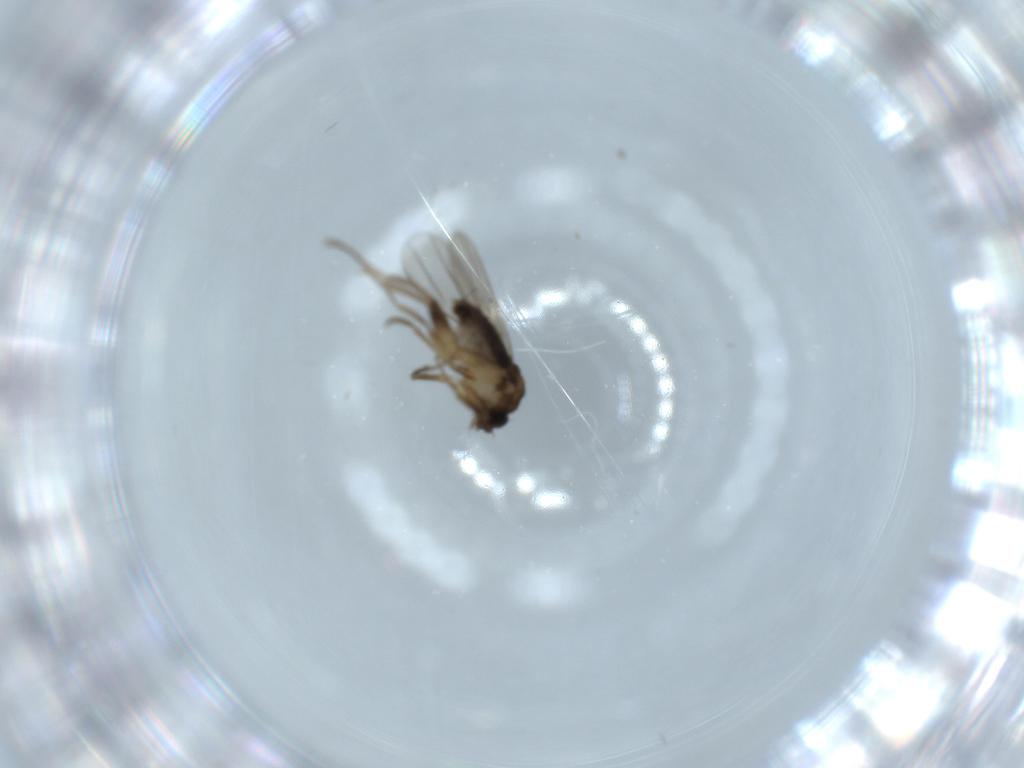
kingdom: Animalia
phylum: Arthropoda
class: Insecta
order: Diptera
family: Phoridae
